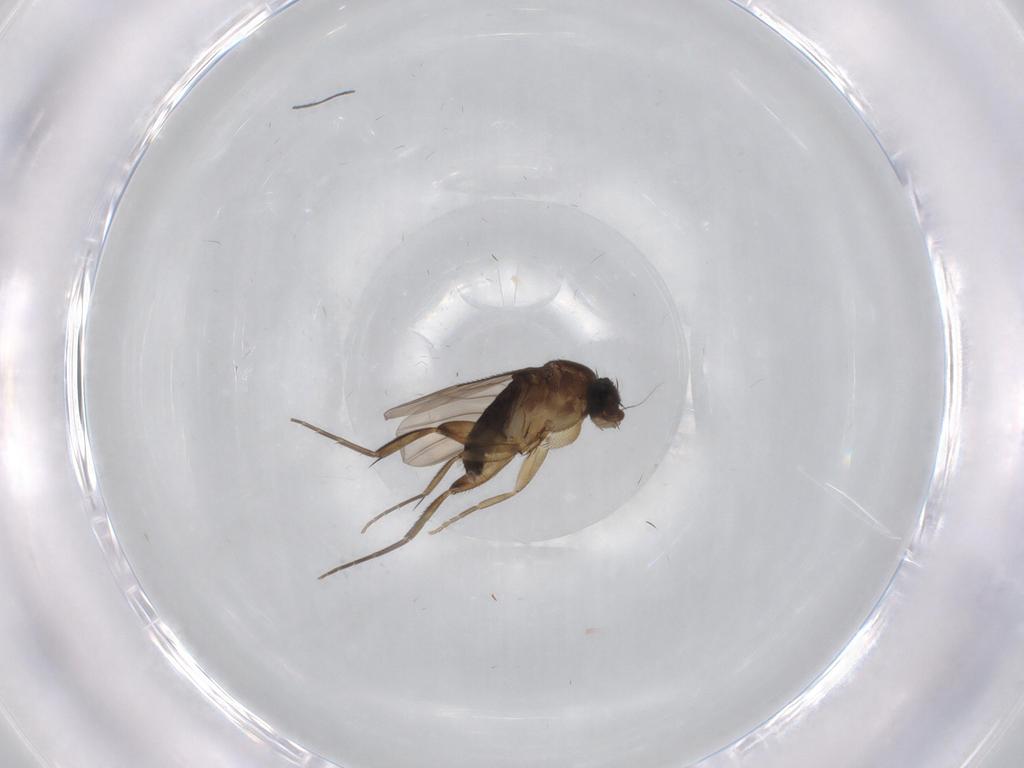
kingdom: Animalia
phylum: Arthropoda
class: Insecta
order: Diptera
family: Phoridae
